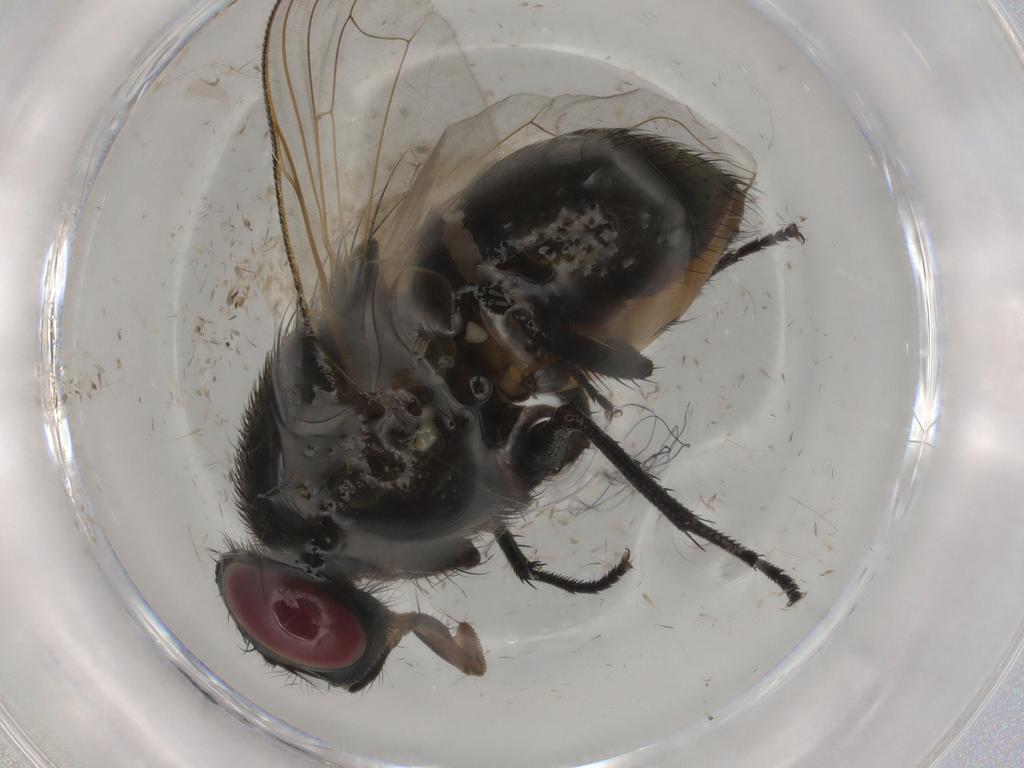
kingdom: Animalia
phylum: Arthropoda
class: Insecta
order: Diptera
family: Muscidae
